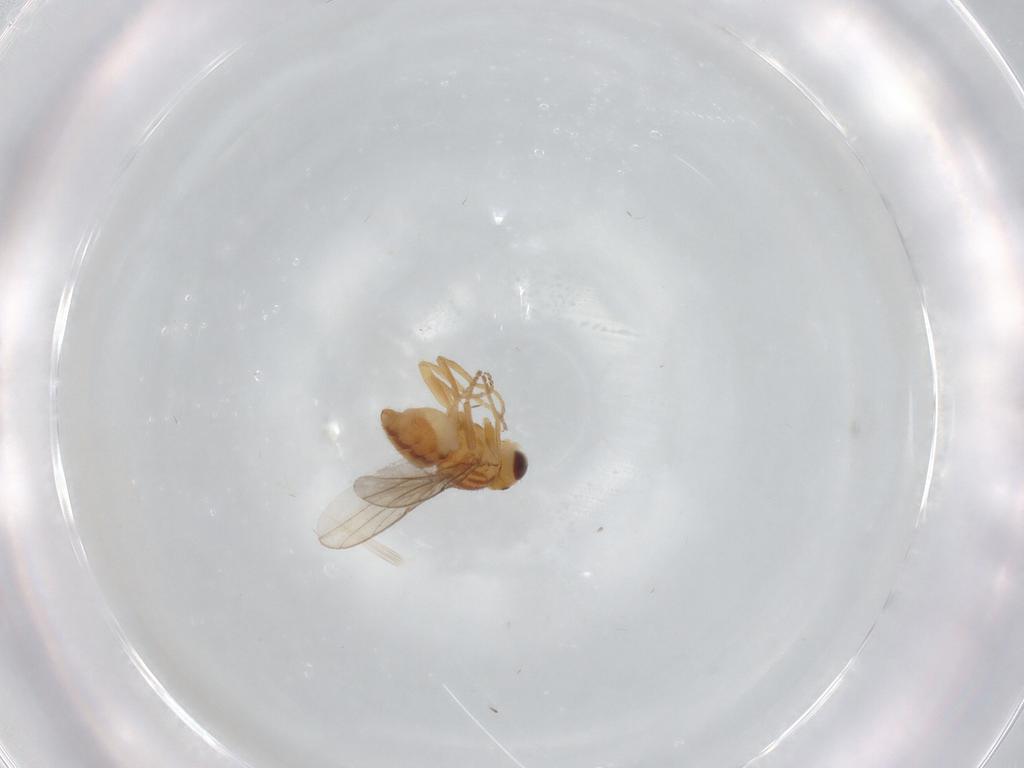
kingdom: Animalia
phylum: Arthropoda
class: Insecta
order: Diptera
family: Chloropidae
